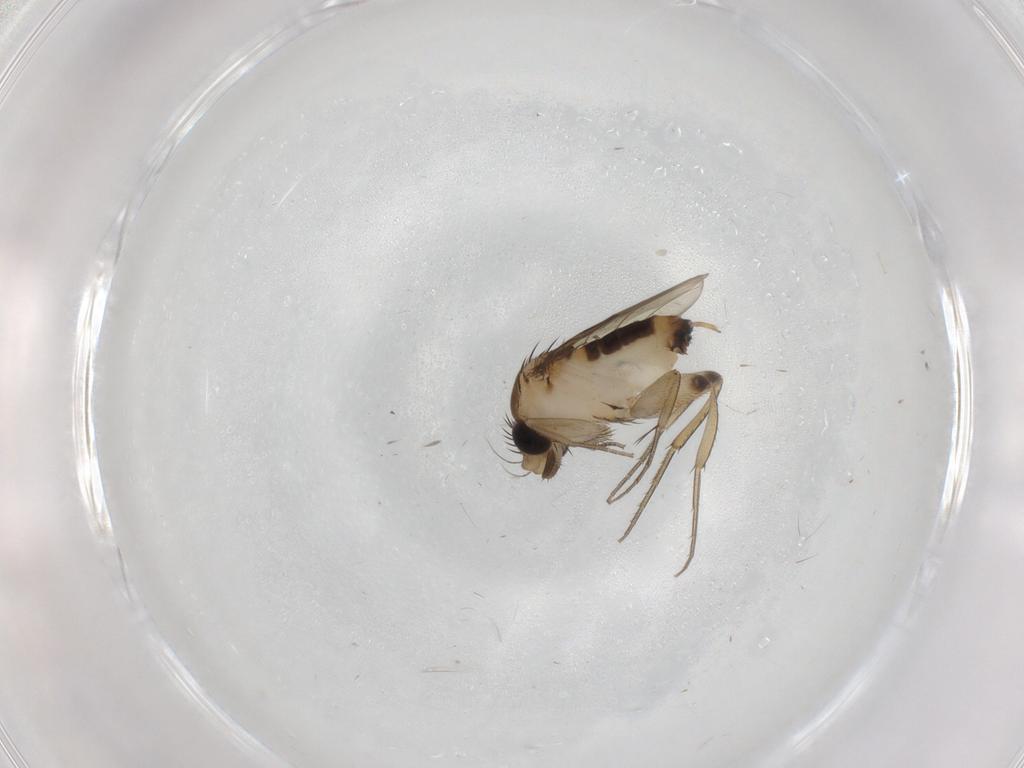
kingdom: Animalia
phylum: Arthropoda
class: Insecta
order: Diptera
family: Phoridae
